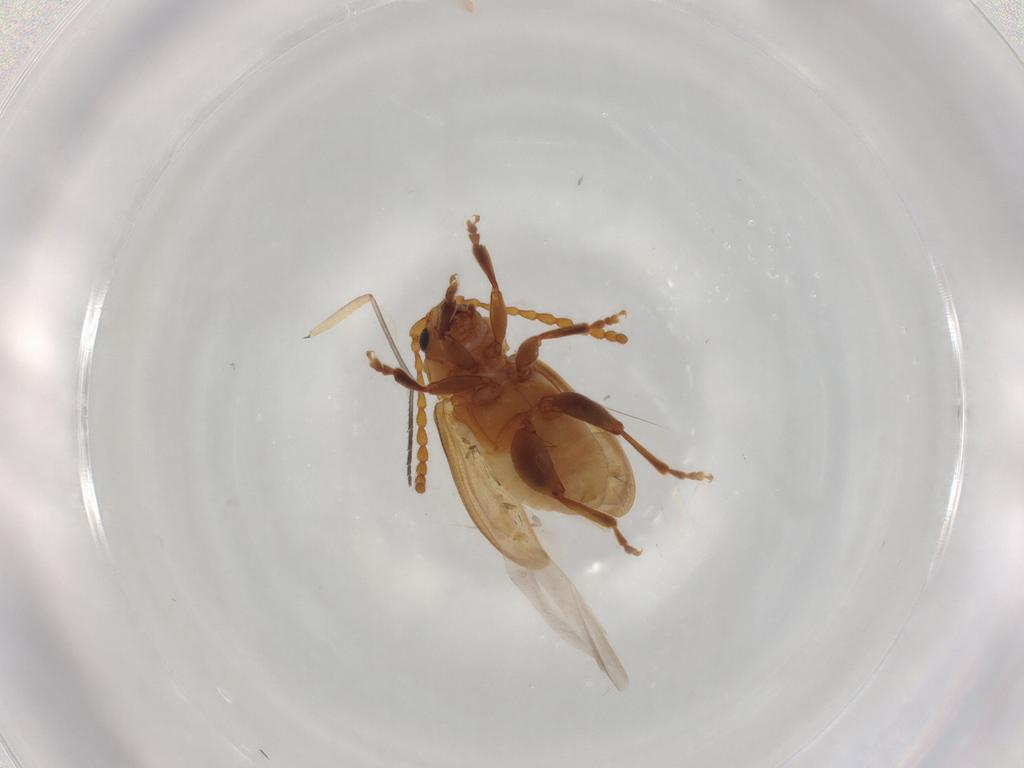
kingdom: Animalia
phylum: Arthropoda
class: Insecta
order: Coleoptera
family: Chrysomelidae
